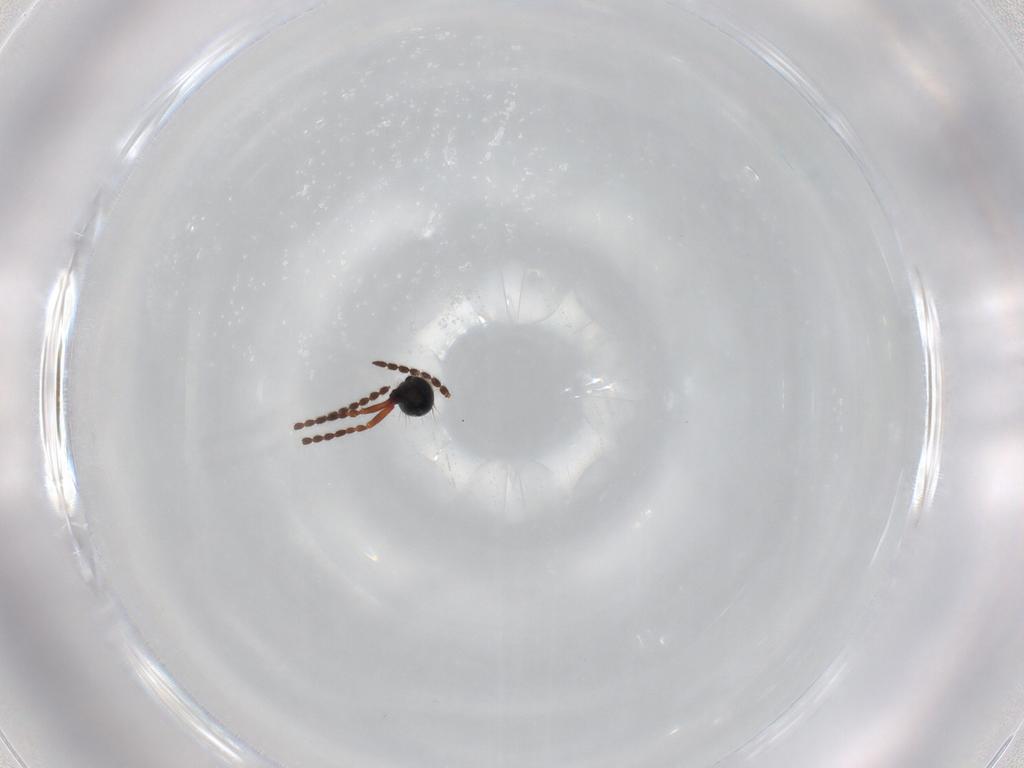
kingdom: Animalia
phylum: Arthropoda
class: Insecta
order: Hymenoptera
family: Diapriidae
